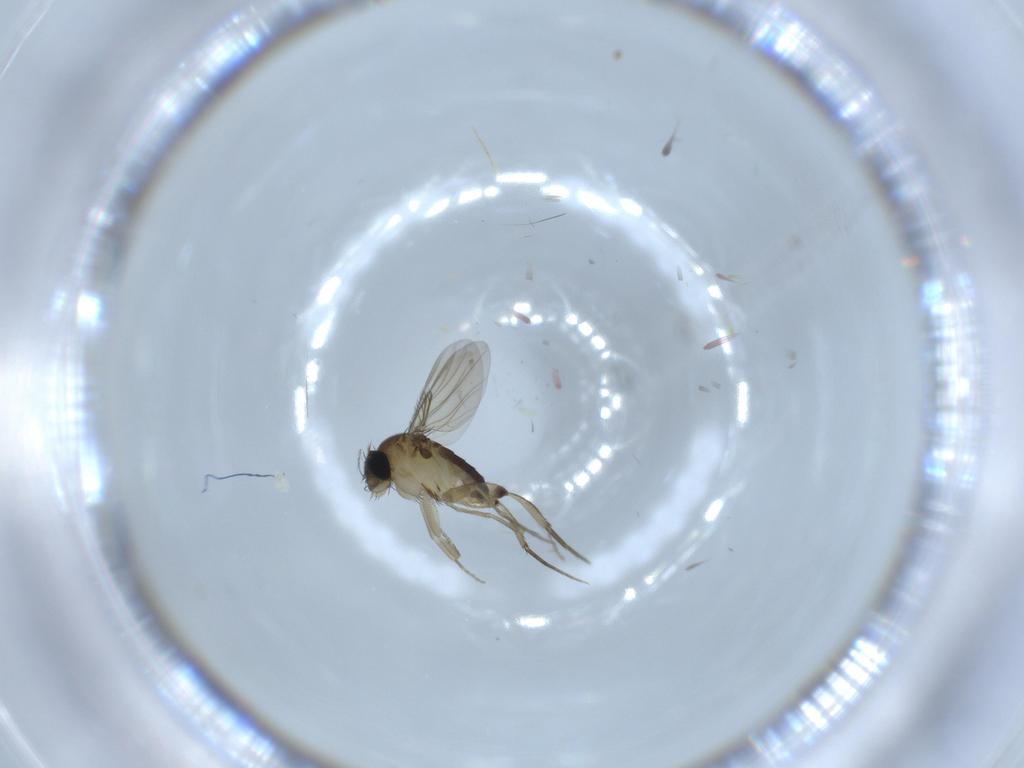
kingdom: Animalia
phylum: Arthropoda
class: Insecta
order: Diptera
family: Phoridae
